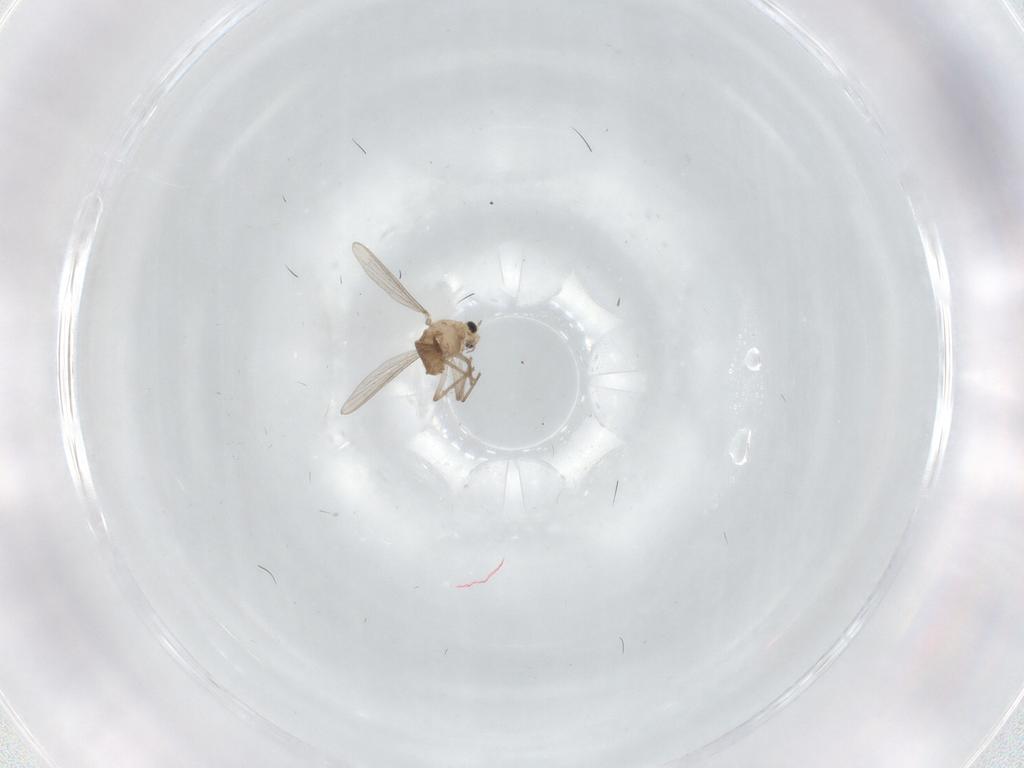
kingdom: Animalia
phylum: Arthropoda
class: Insecta
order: Diptera
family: Chironomidae
